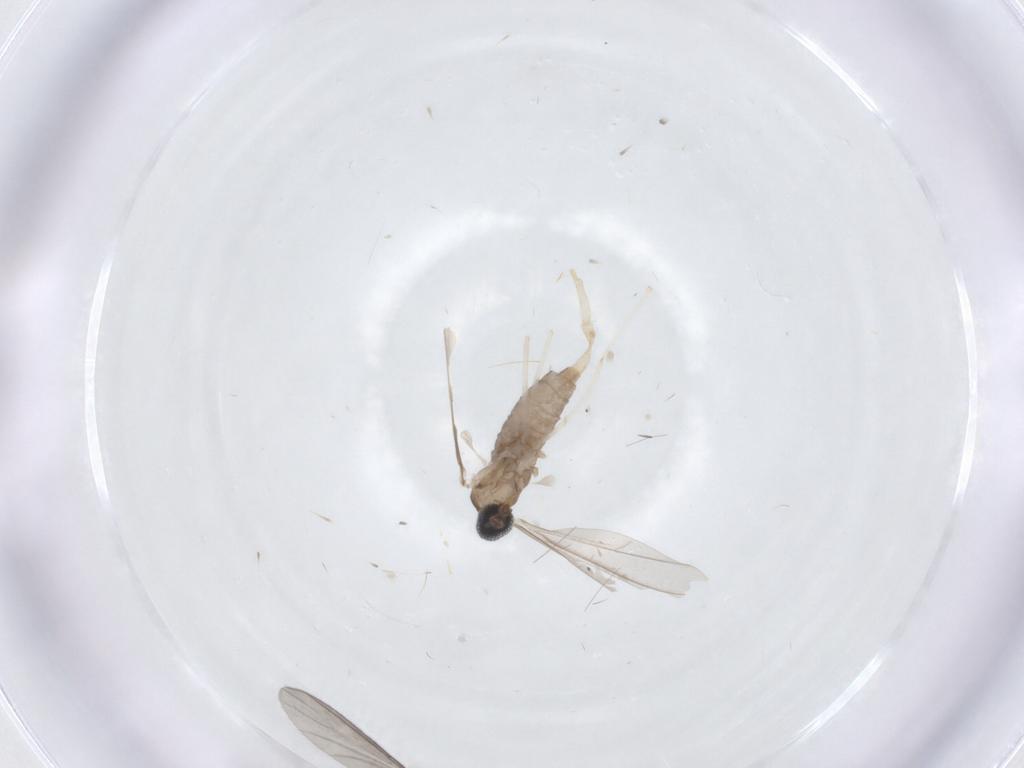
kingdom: Animalia
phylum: Arthropoda
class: Insecta
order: Diptera
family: Cecidomyiidae
